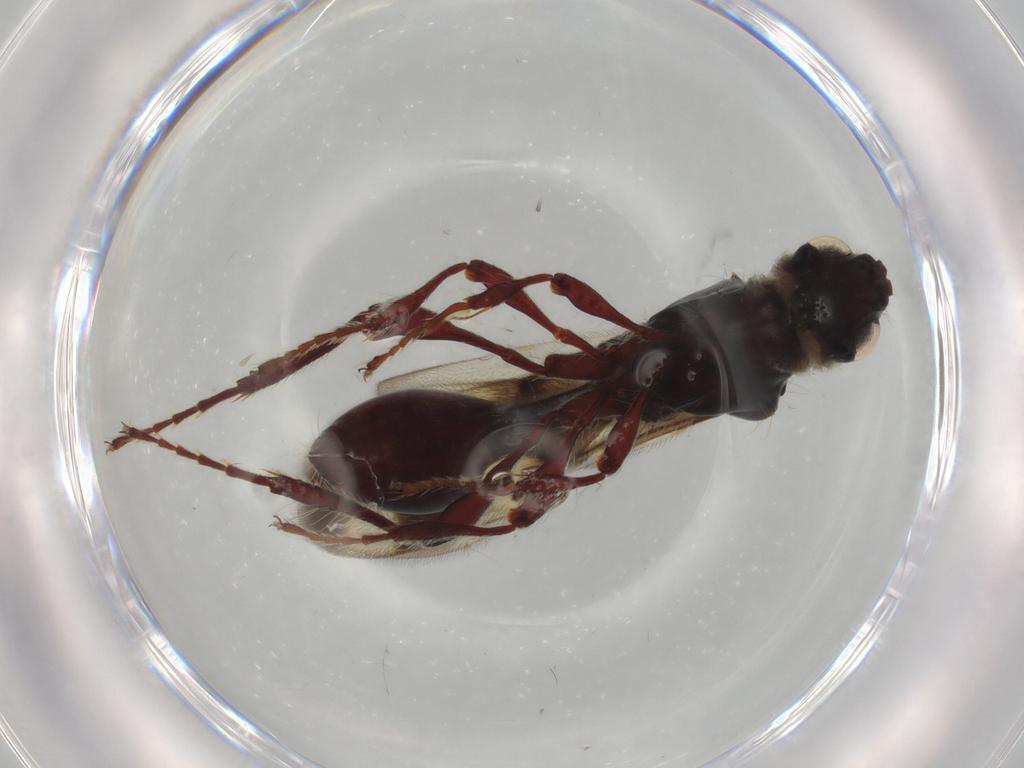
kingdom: Animalia
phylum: Arthropoda
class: Insecta
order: Hymenoptera
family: Diapriidae
